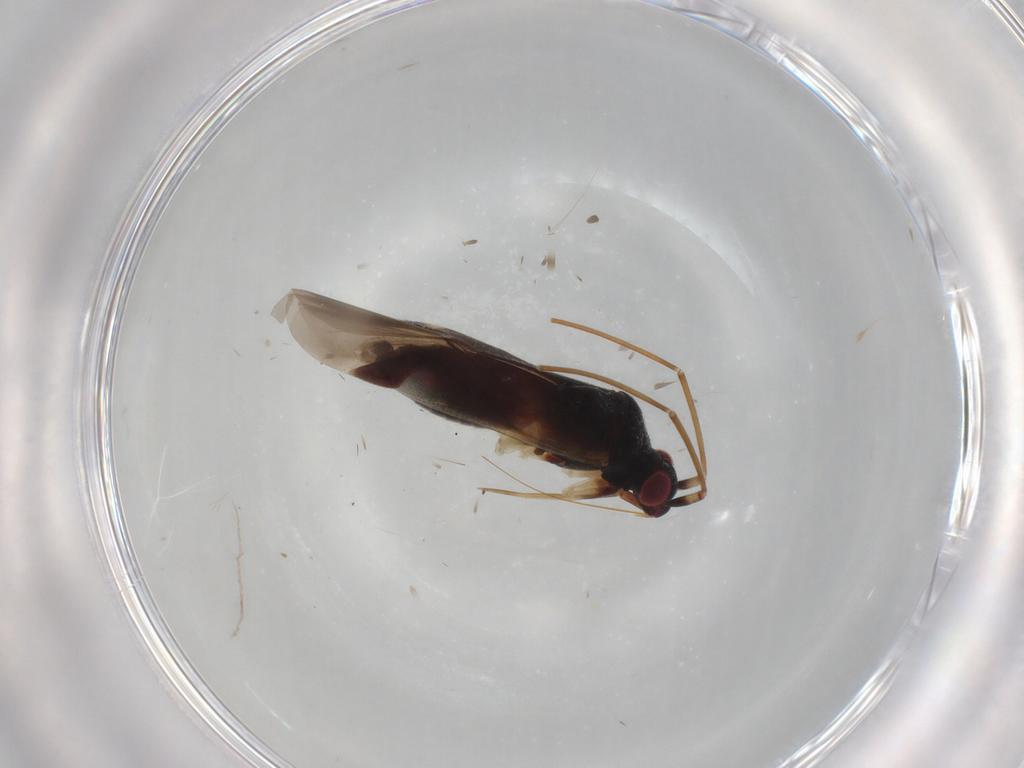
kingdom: Animalia
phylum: Arthropoda
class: Insecta
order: Hemiptera
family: Miridae
